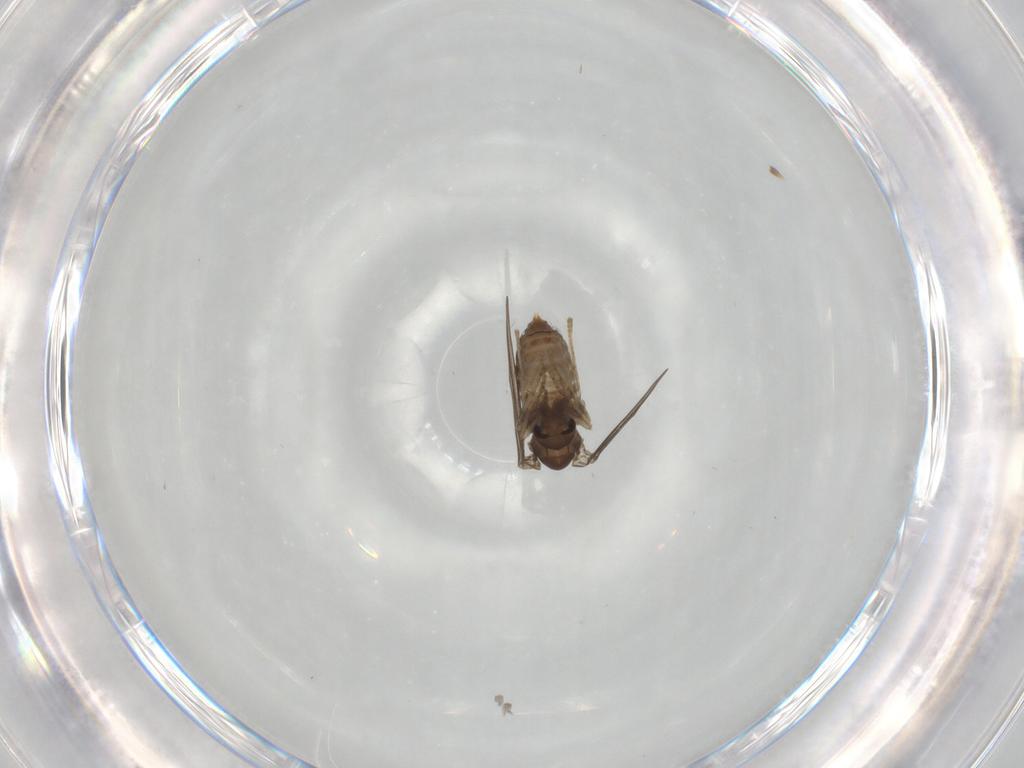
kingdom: Animalia
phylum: Arthropoda
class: Insecta
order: Diptera
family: Psychodidae
